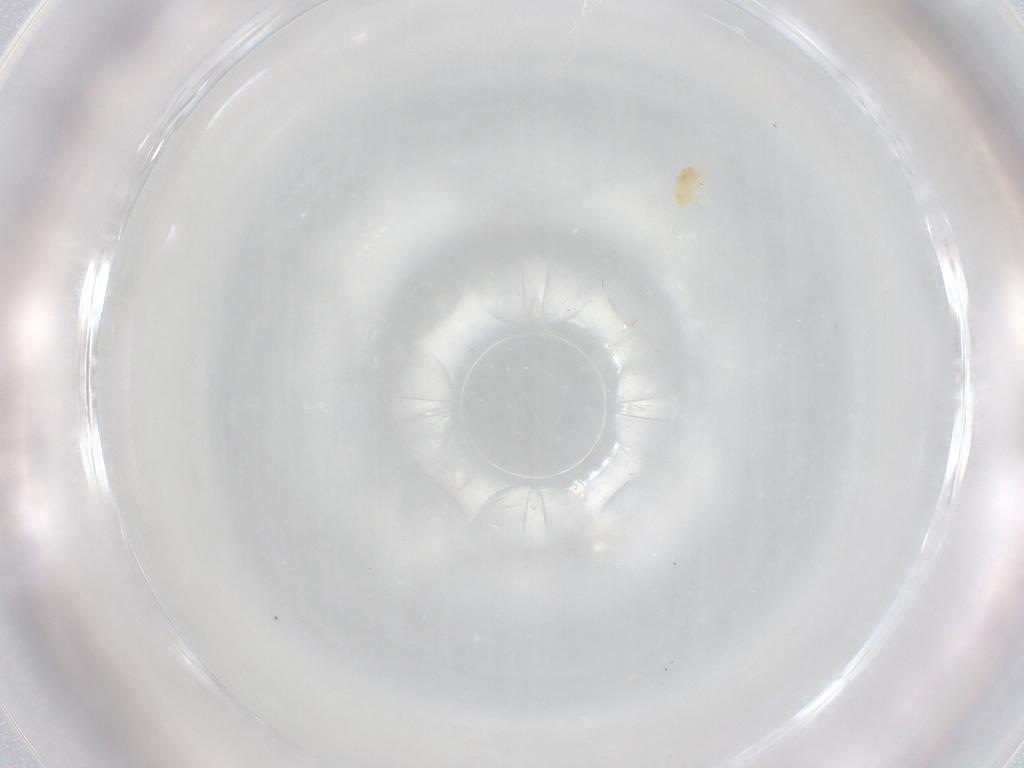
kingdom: Animalia
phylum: Arthropoda
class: Arachnida
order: Trombidiformes
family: Eupodidae
